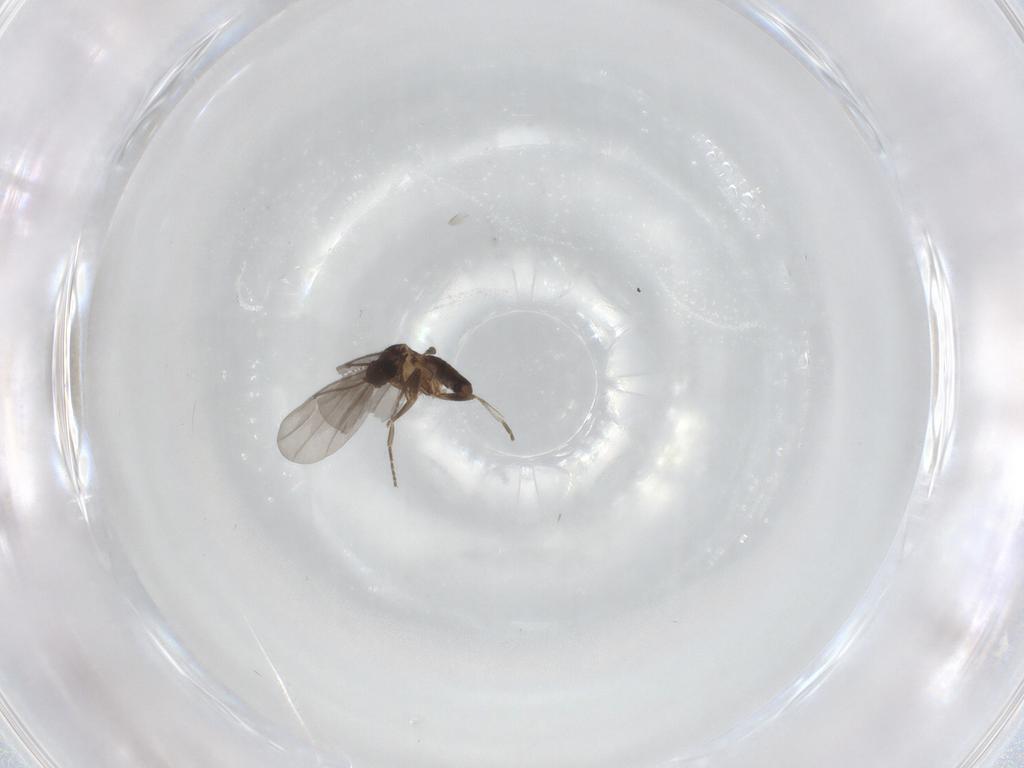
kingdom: Animalia
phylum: Arthropoda
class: Insecta
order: Diptera
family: Phoridae
